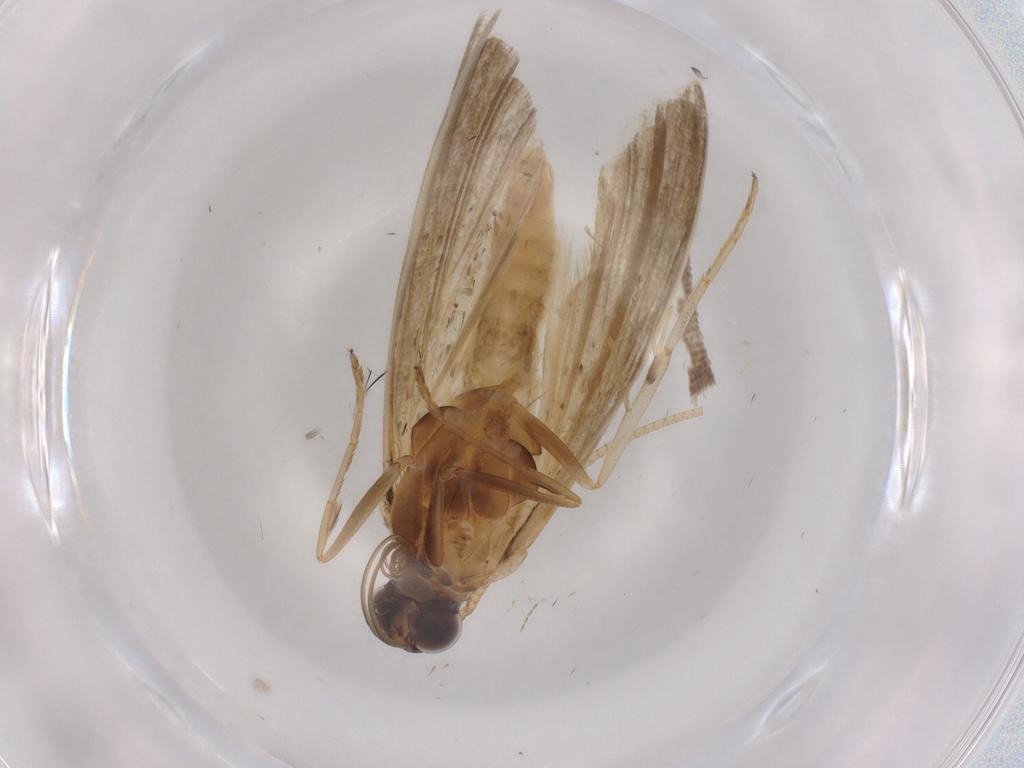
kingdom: Animalia
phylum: Arthropoda
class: Insecta
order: Lepidoptera
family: Noctuidae
